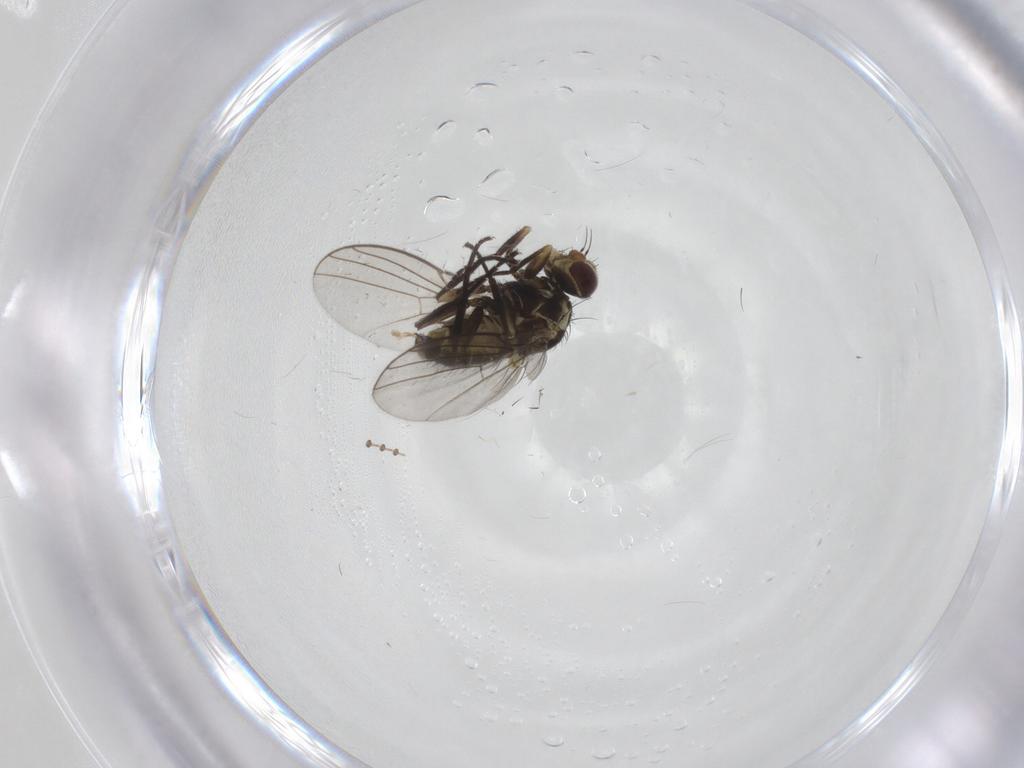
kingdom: Animalia
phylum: Arthropoda
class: Insecta
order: Diptera
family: Agromyzidae
